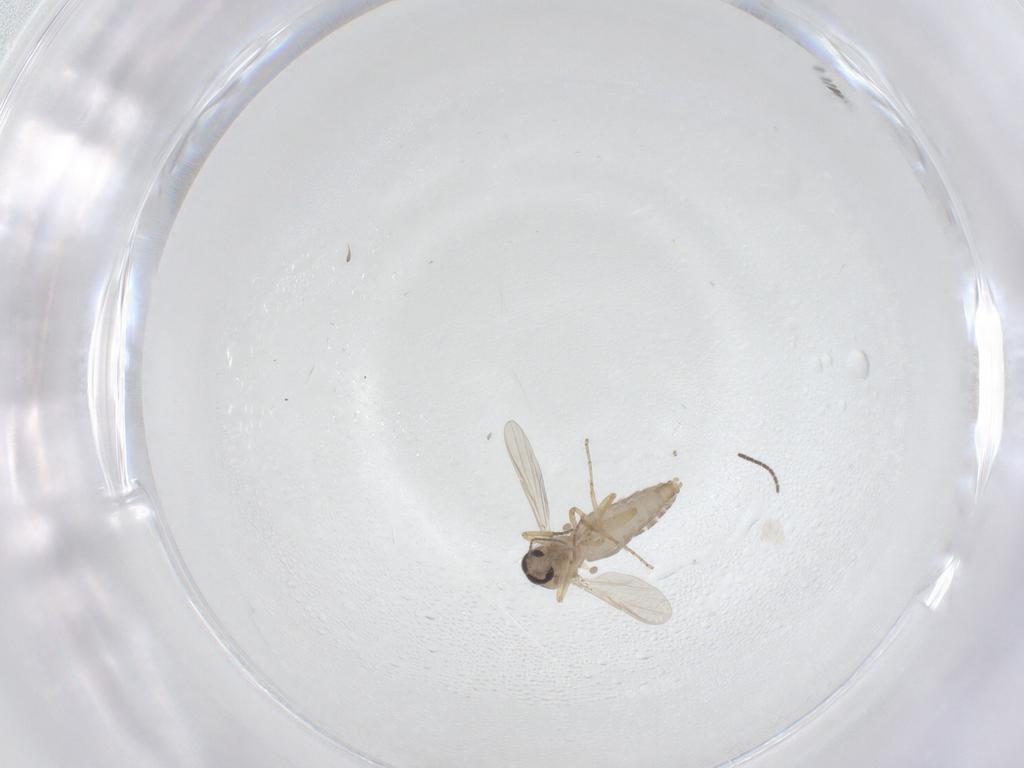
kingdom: Animalia
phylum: Arthropoda
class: Insecta
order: Diptera
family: Ceratopogonidae
